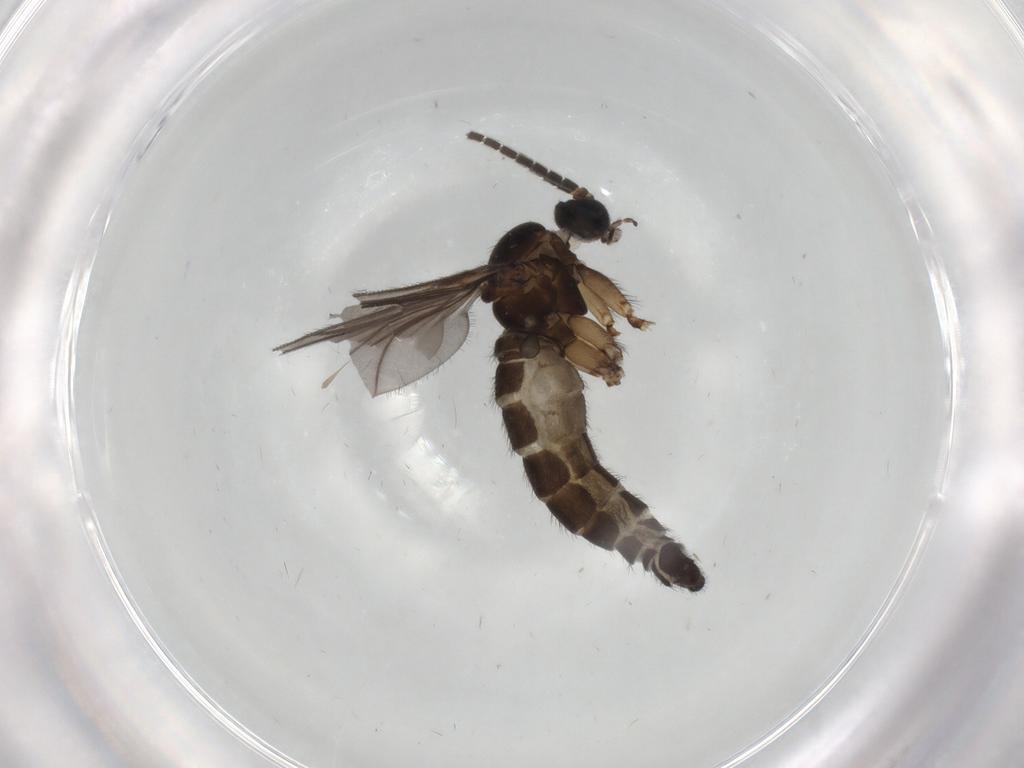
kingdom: Animalia
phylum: Arthropoda
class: Insecta
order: Diptera
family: Sciaridae
